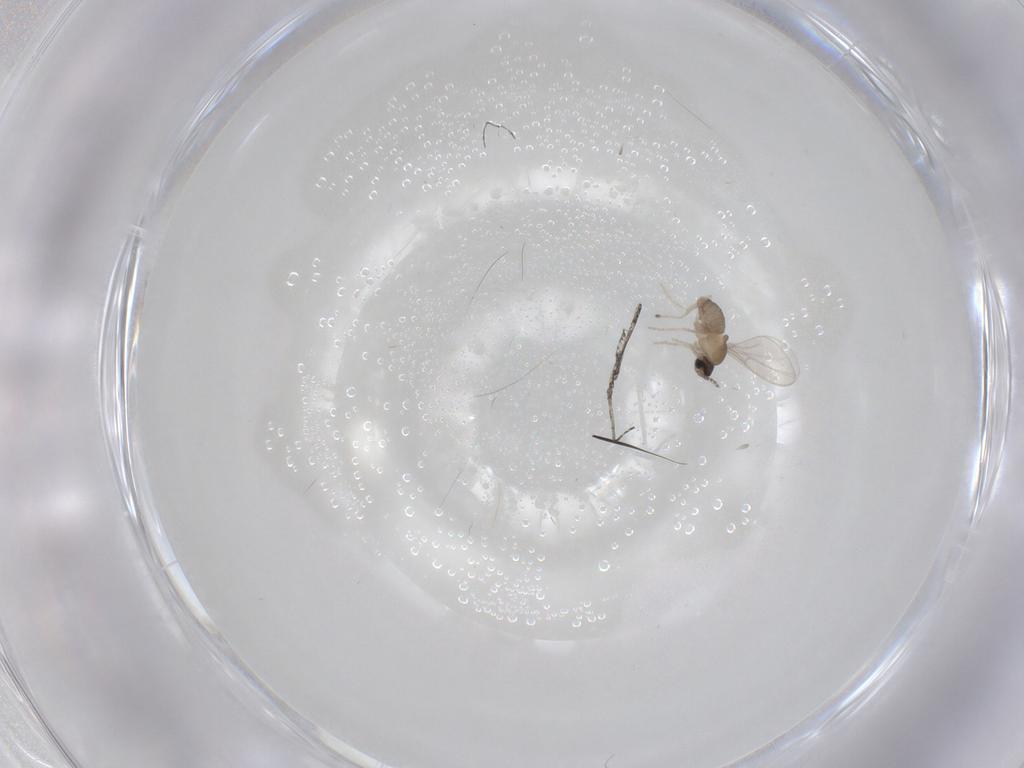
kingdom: Animalia
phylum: Arthropoda
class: Insecta
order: Diptera
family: Cecidomyiidae
